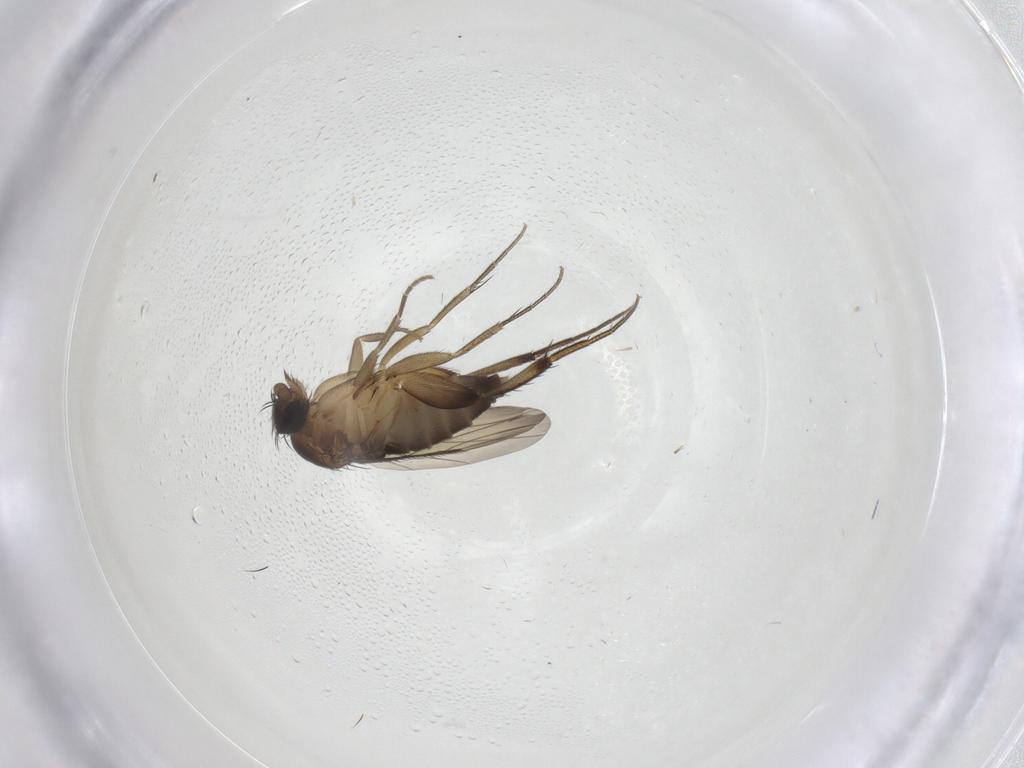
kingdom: Animalia
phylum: Arthropoda
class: Insecta
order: Diptera
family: Phoridae
